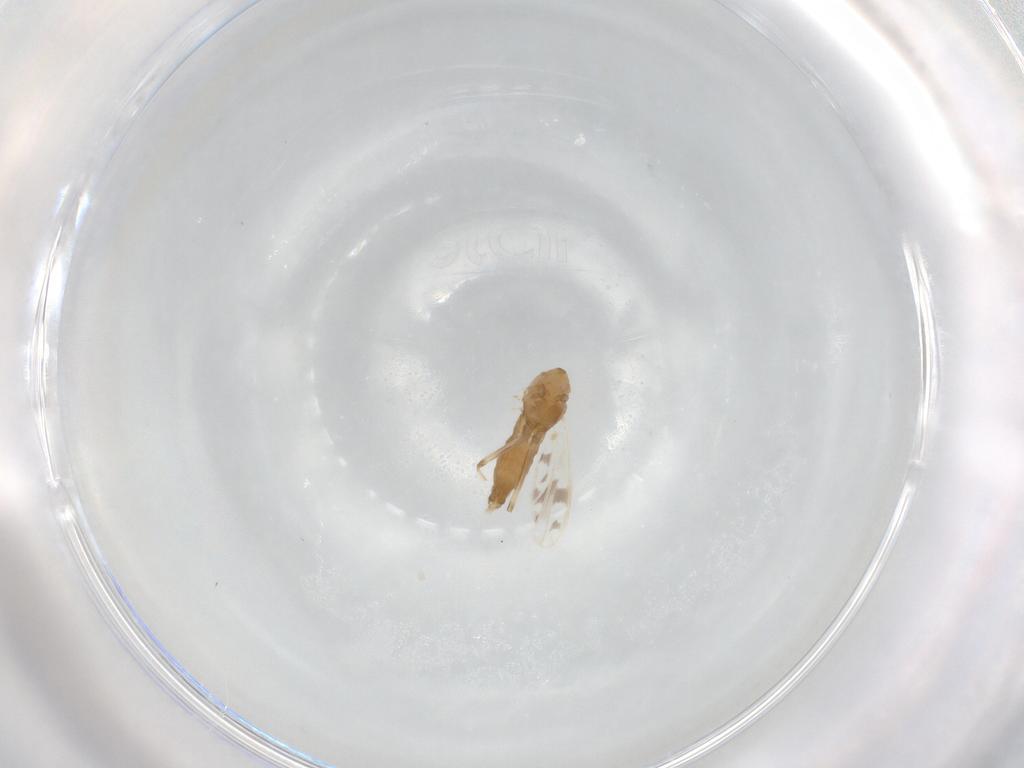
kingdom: Animalia
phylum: Arthropoda
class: Insecta
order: Diptera
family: Chironomidae
